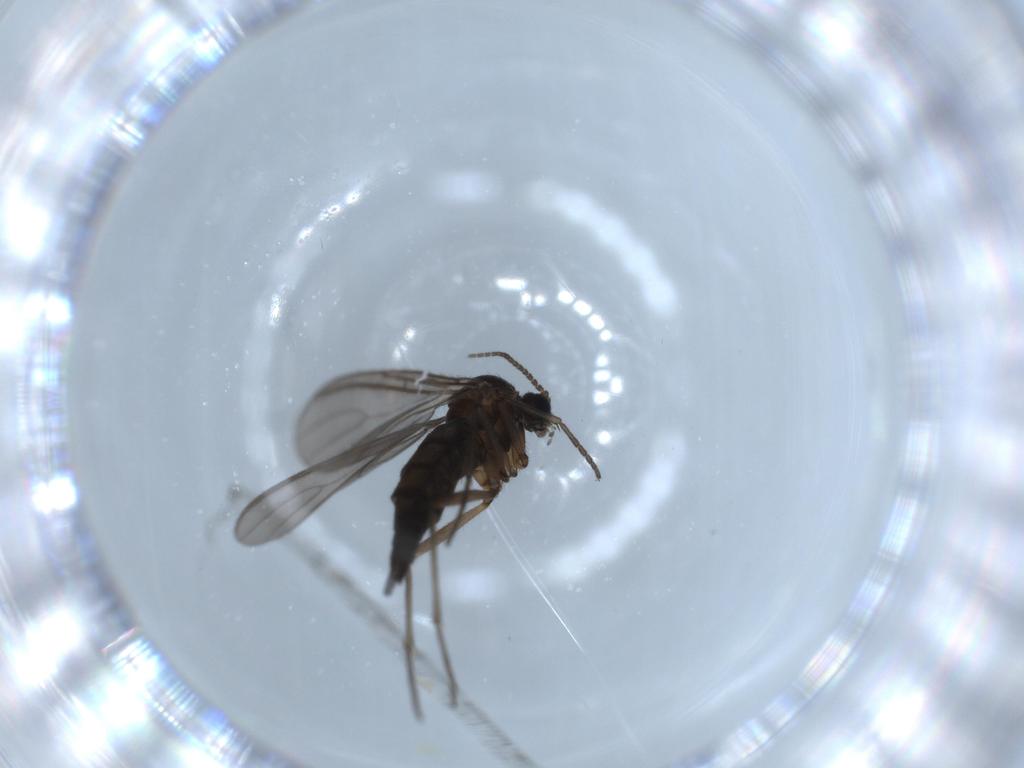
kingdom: Animalia
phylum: Arthropoda
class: Insecta
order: Diptera
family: Sciaridae
